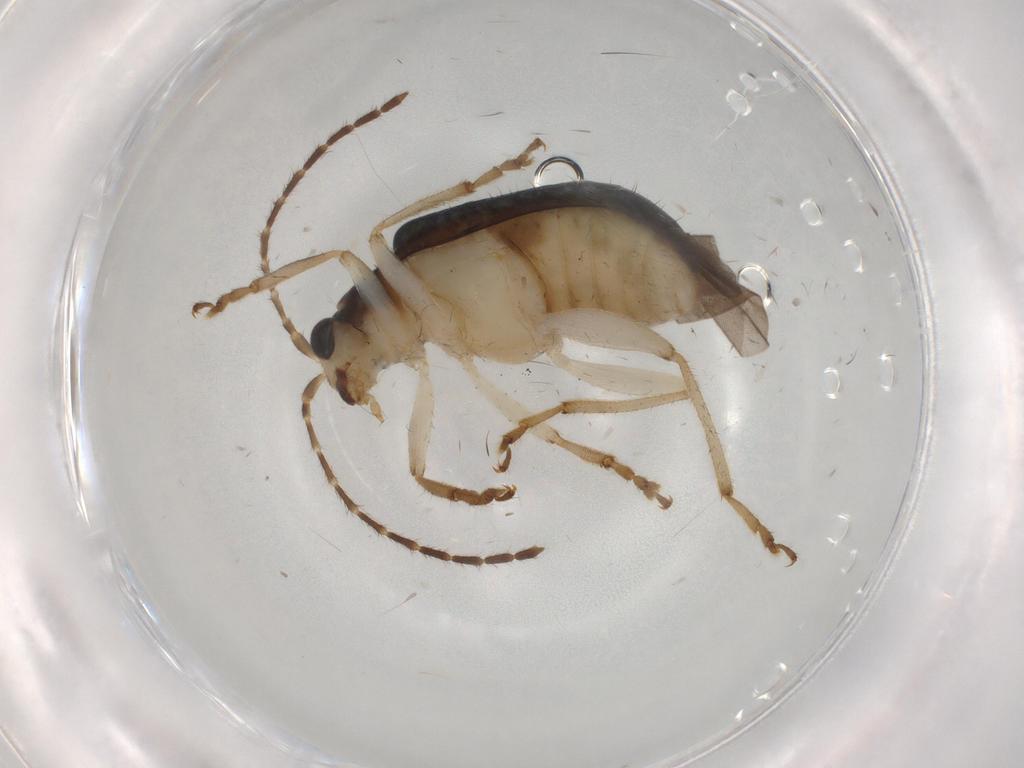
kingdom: Animalia
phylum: Arthropoda
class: Insecta
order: Coleoptera
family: Chrysomelidae
